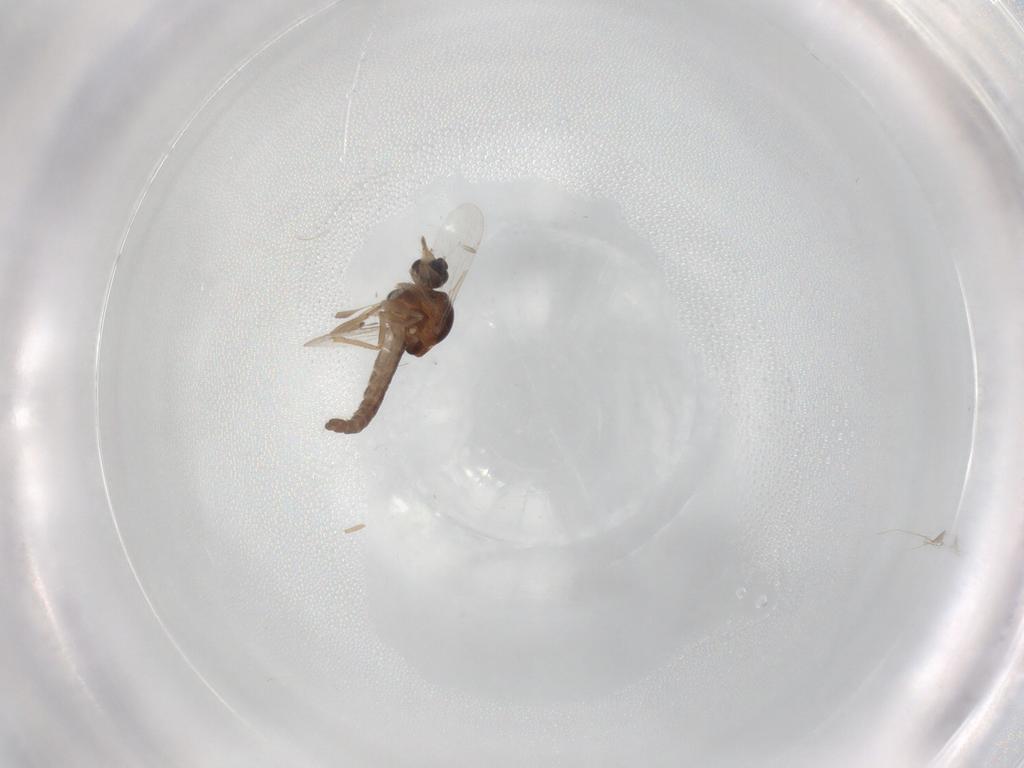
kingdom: Animalia
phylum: Arthropoda
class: Insecta
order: Diptera
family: Ceratopogonidae
